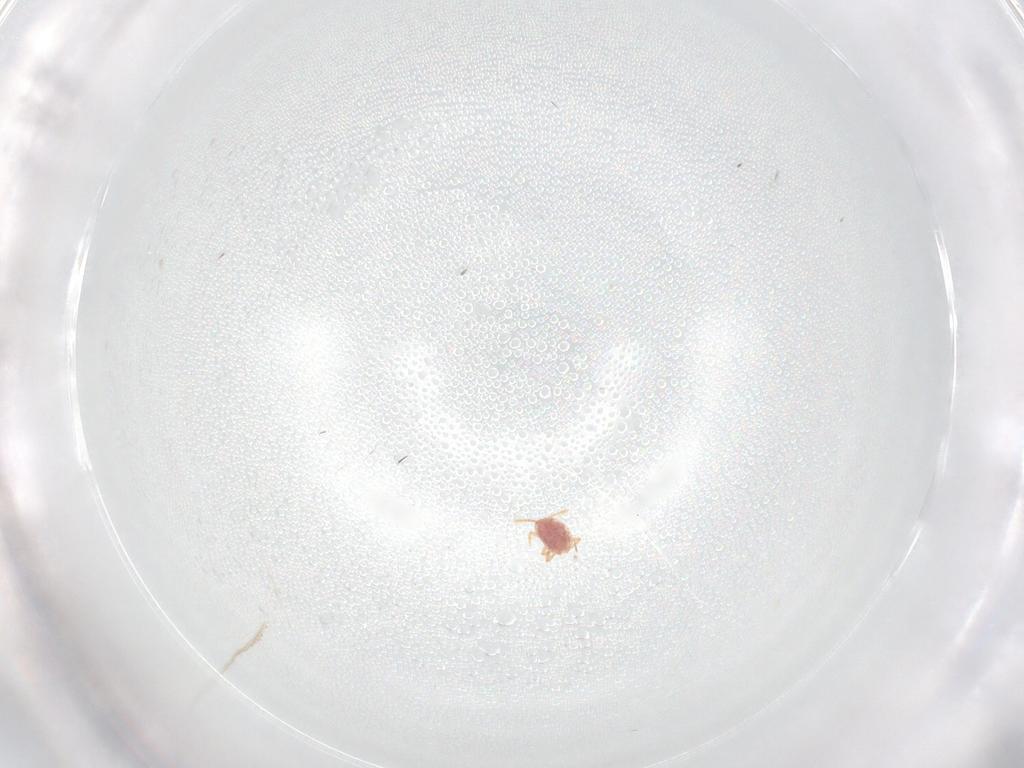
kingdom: Animalia
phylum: Arthropoda
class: Insecta
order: Hemiptera
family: Cicadellidae
